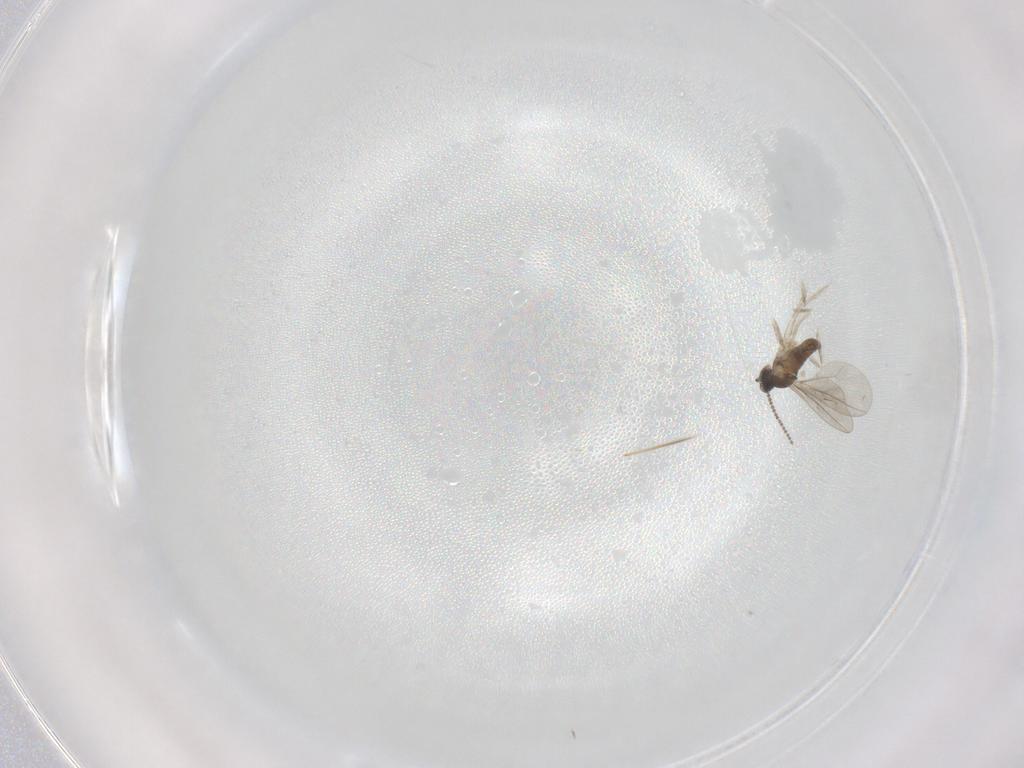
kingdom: Animalia
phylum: Arthropoda
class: Insecta
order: Diptera
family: Cecidomyiidae
